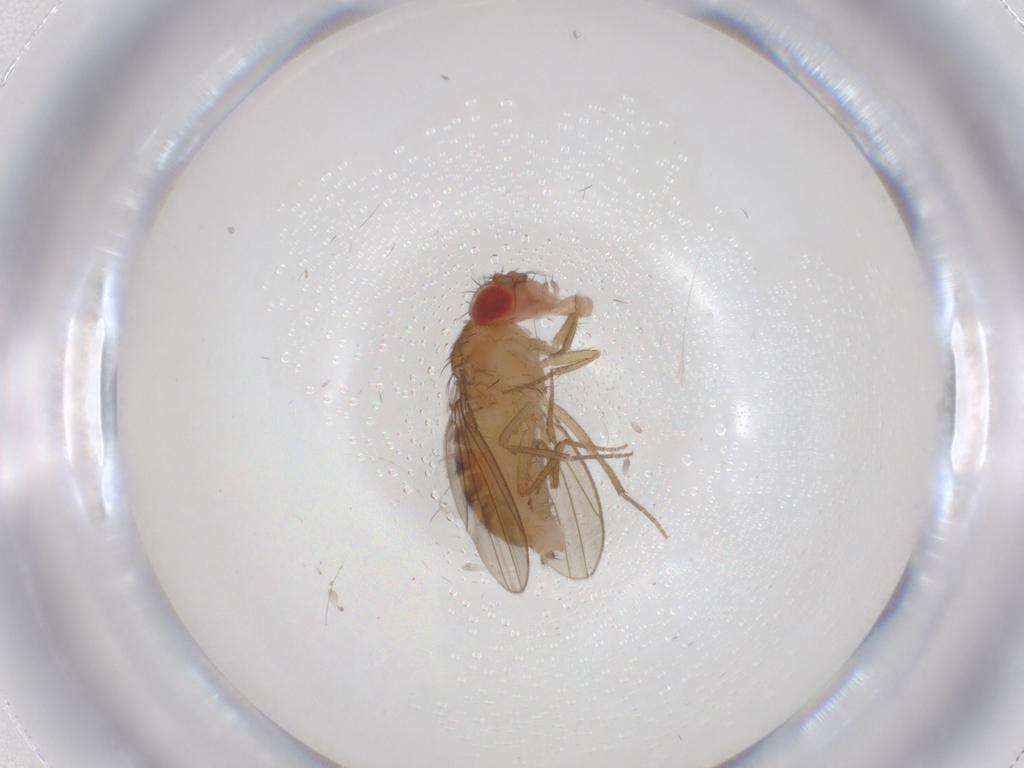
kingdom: Animalia
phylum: Arthropoda
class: Insecta
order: Diptera
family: Drosophilidae
